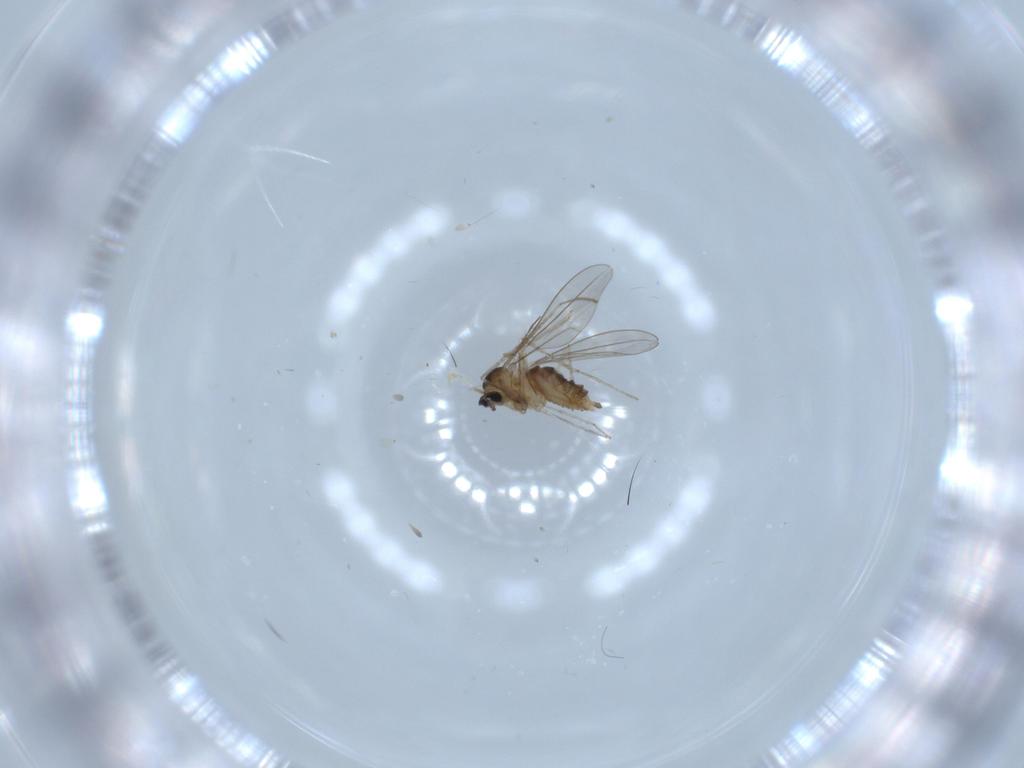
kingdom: Animalia
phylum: Arthropoda
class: Insecta
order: Diptera
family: Cecidomyiidae
